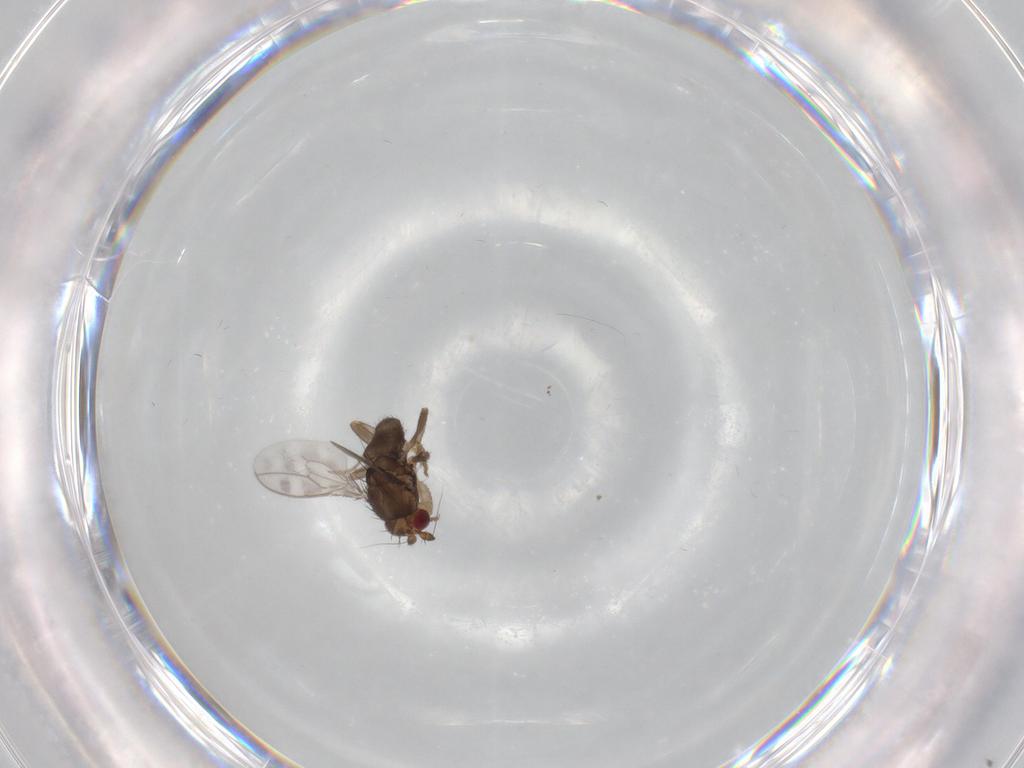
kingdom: Animalia
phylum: Arthropoda
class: Insecta
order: Diptera
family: Sphaeroceridae
